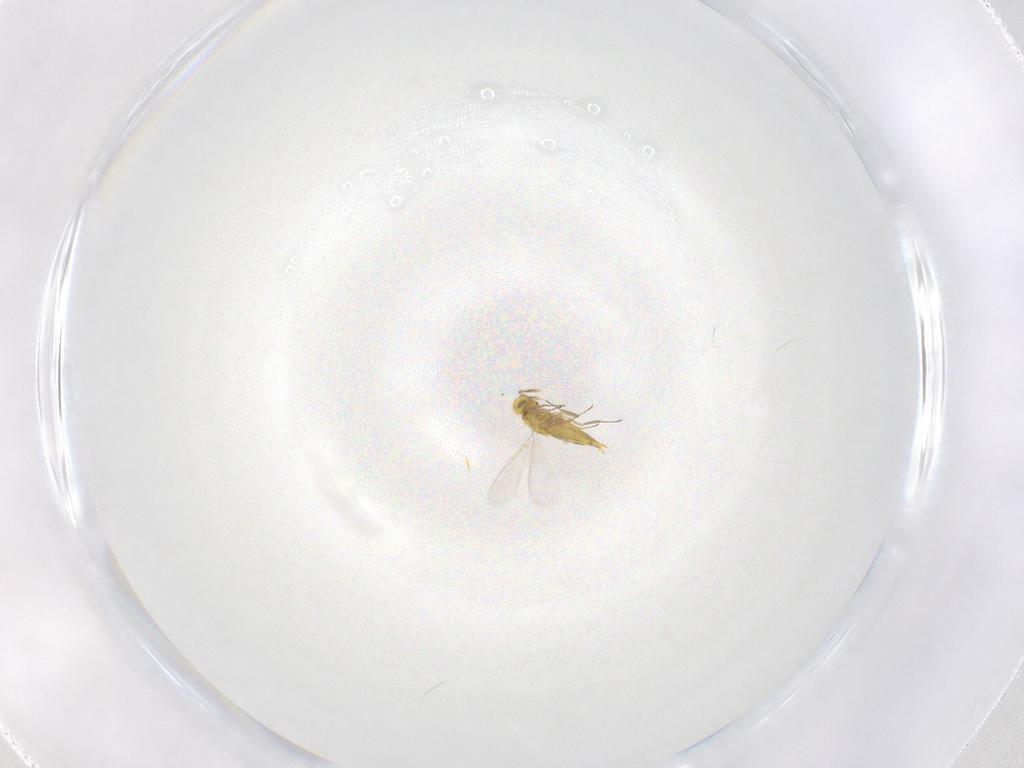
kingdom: Animalia
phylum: Arthropoda
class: Insecta
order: Hymenoptera
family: Aphelinidae
